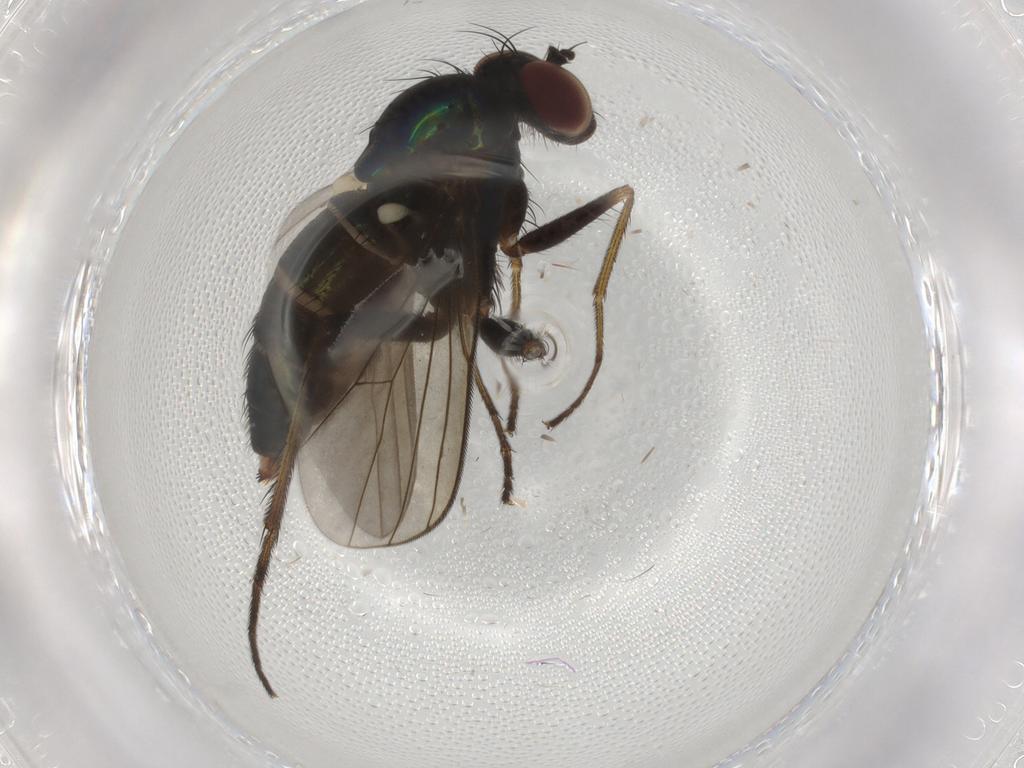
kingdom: Animalia
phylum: Arthropoda
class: Insecta
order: Diptera
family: Dolichopodidae
